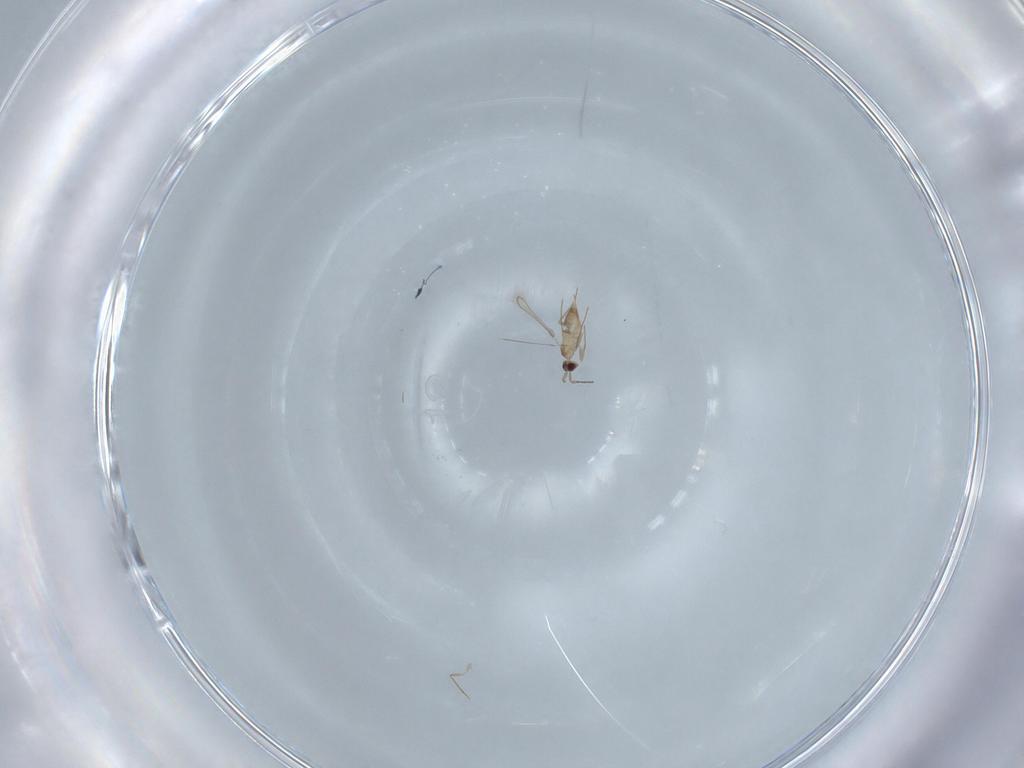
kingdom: Animalia
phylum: Arthropoda
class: Insecta
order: Hymenoptera
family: Mymaridae
